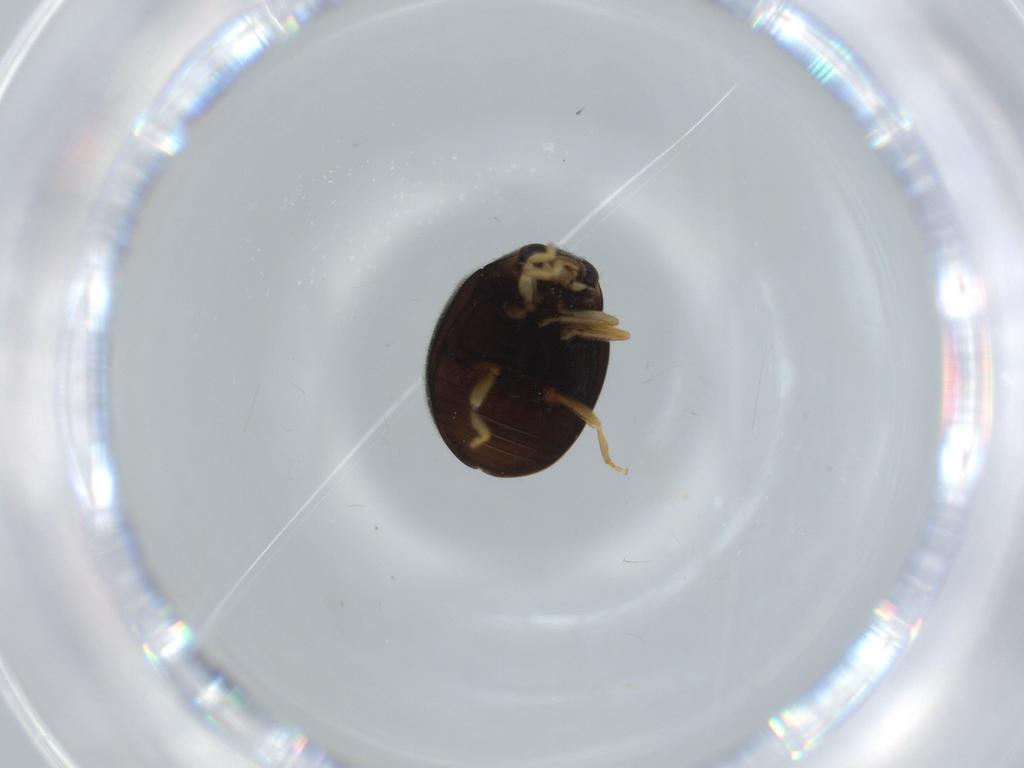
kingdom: Animalia
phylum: Arthropoda
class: Insecta
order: Coleoptera
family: Coccinellidae
